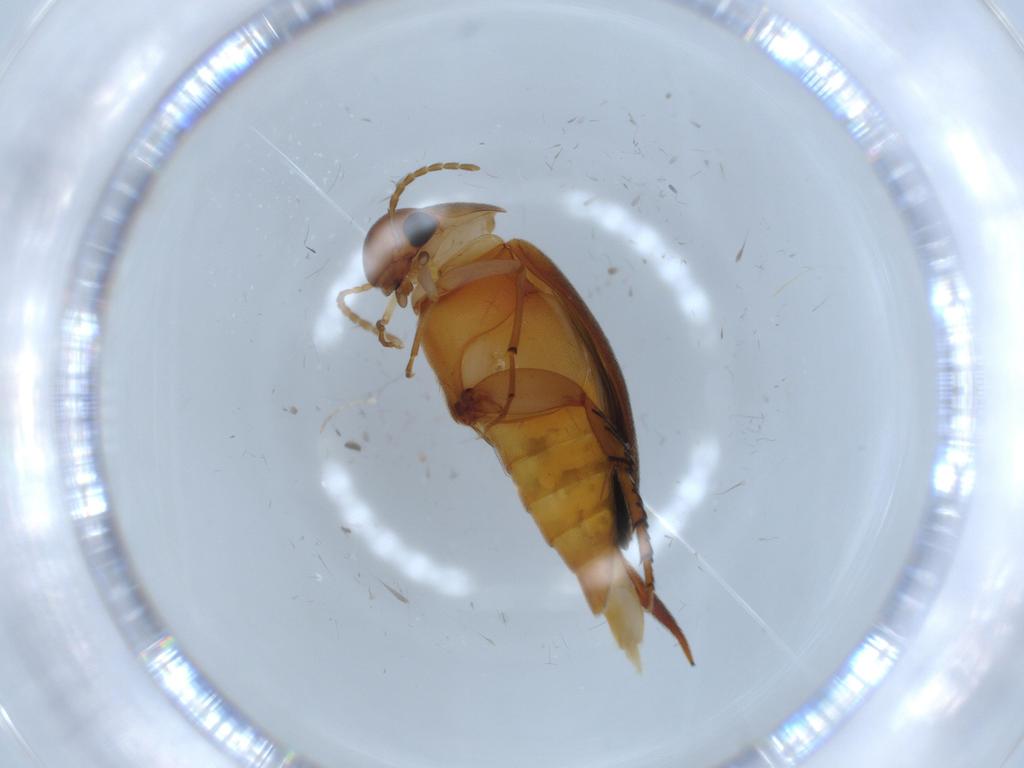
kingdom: Animalia
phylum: Arthropoda
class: Insecta
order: Coleoptera
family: Mordellidae
